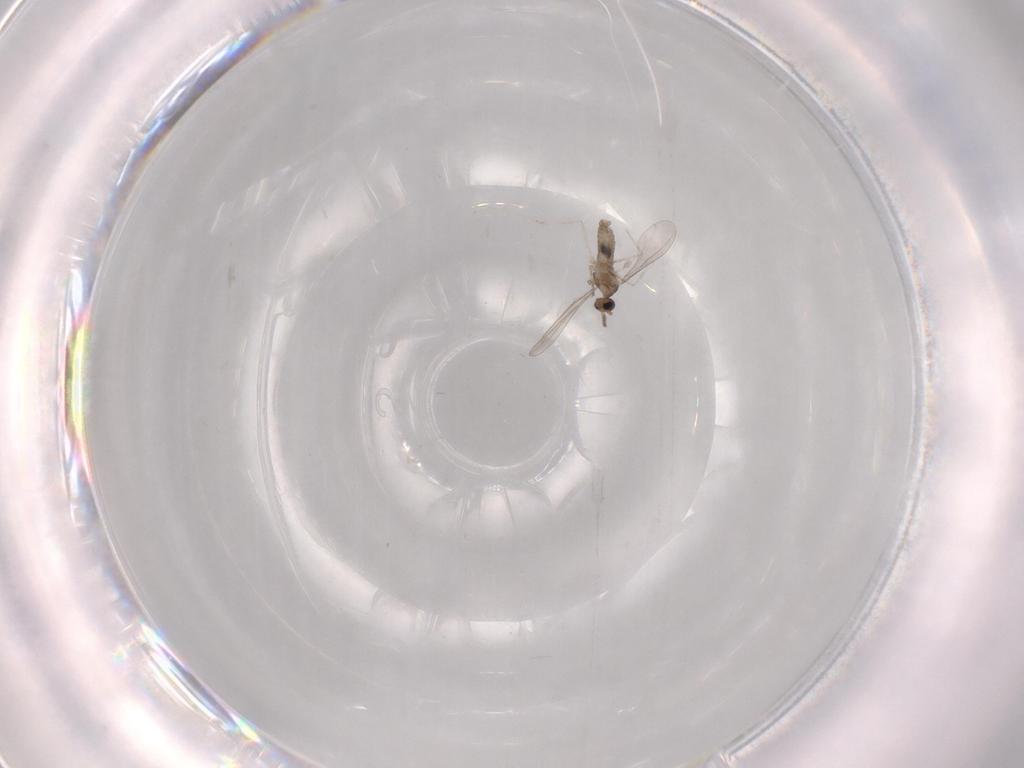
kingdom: Animalia
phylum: Arthropoda
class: Insecta
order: Diptera
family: Chironomidae
